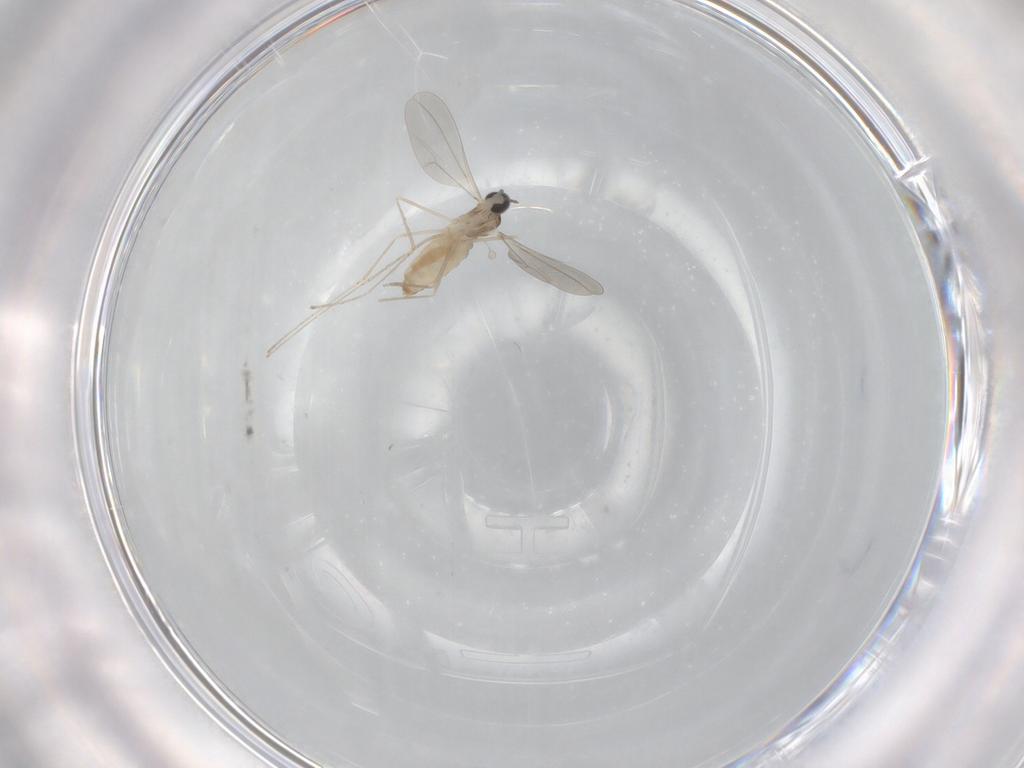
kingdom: Animalia
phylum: Arthropoda
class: Insecta
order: Diptera
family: Cecidomyiidae
